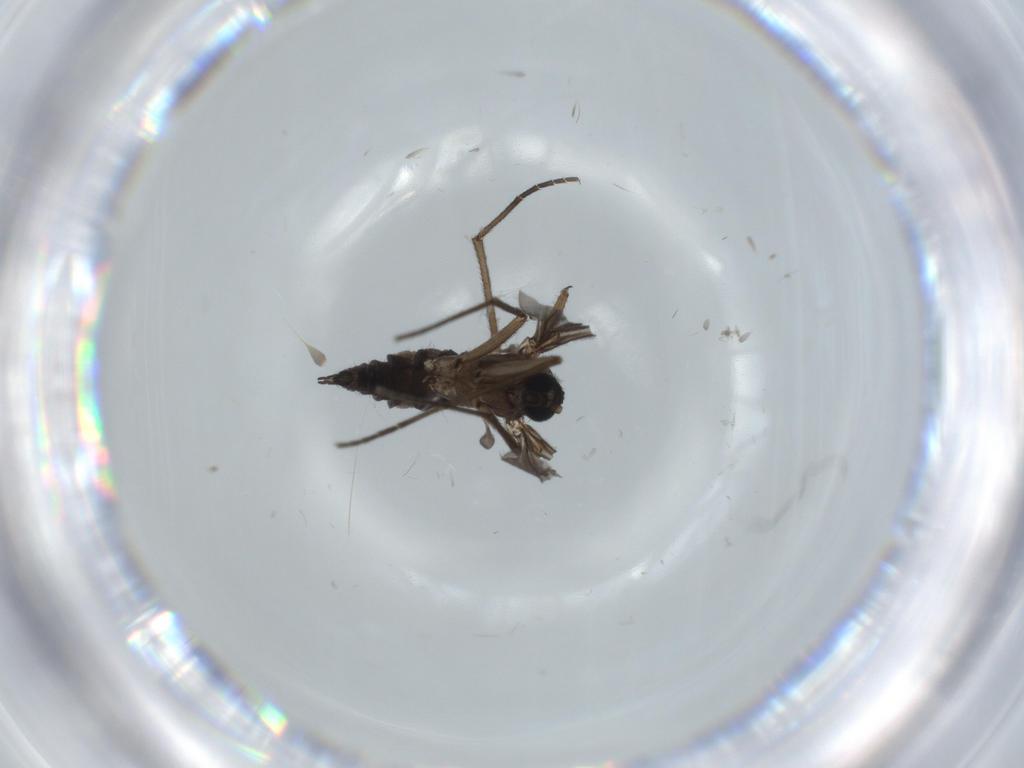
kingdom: Animalia
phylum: Arthropoda
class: Insecta
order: Diptera
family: Sciaridae
